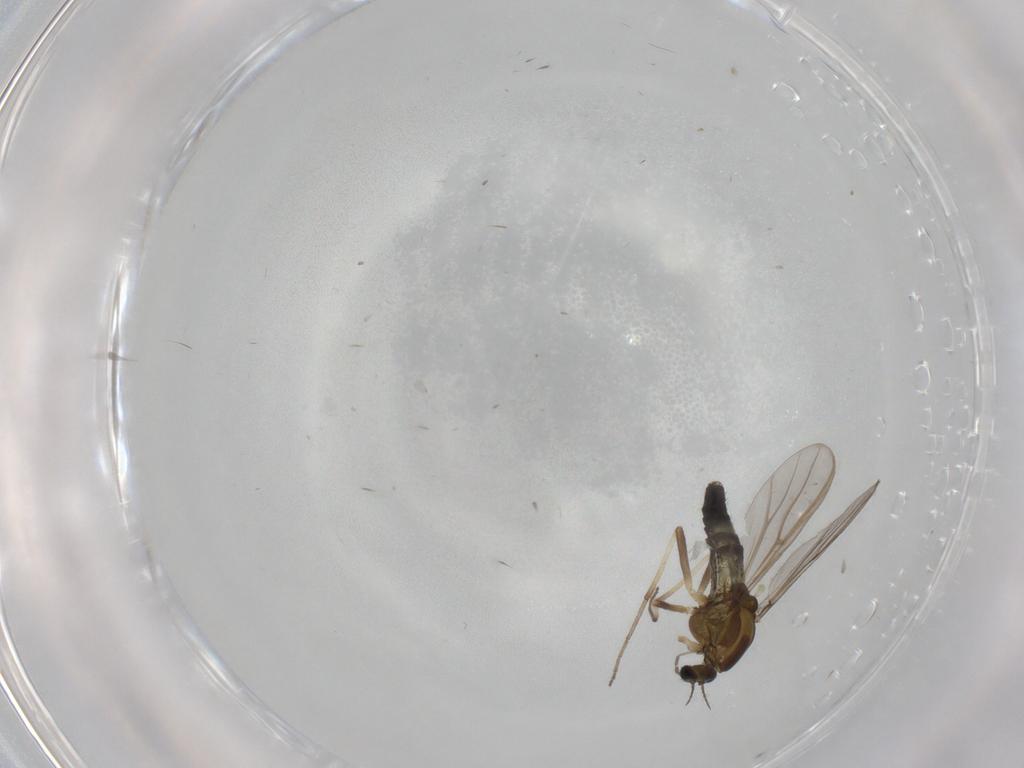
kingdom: Animalia
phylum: Arthropoda
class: Insecta
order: Diptera
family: Chironomidae
